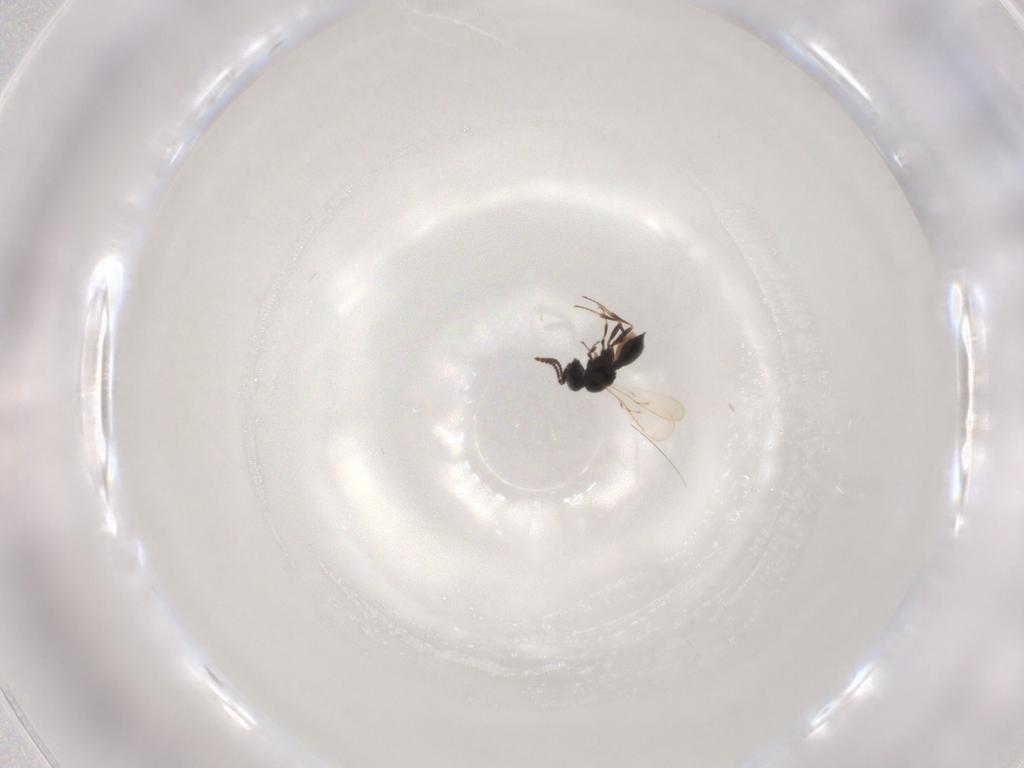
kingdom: Animalia
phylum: Arthropoda
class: Insecta
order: Hymenoptera
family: Scelionidae
